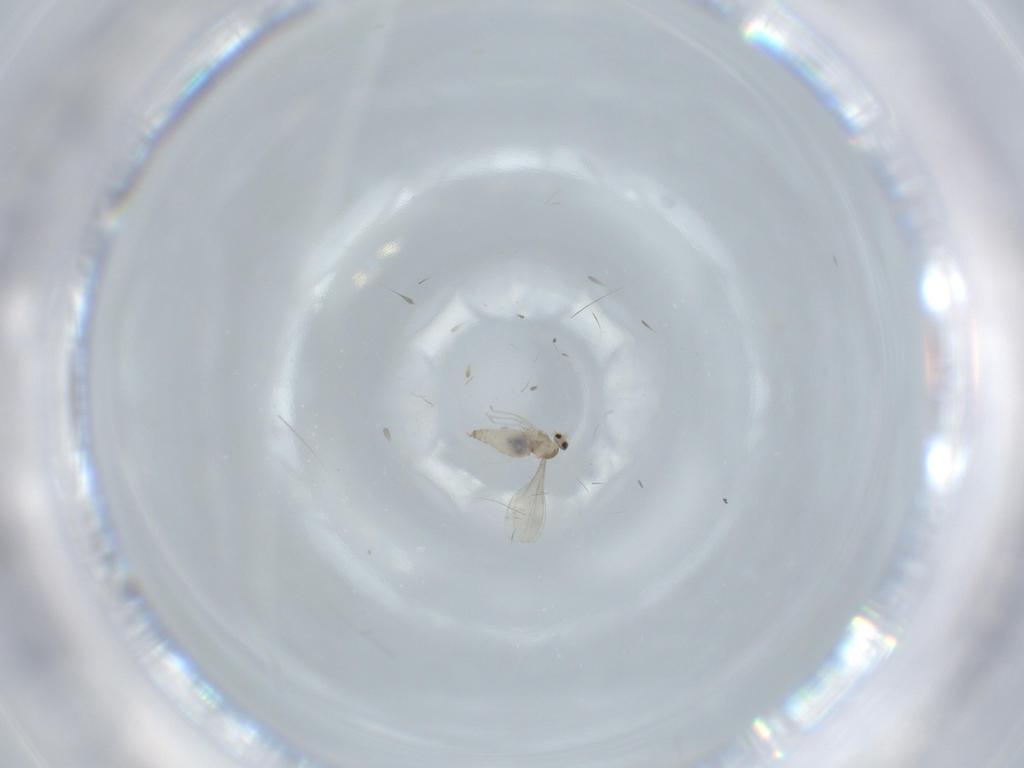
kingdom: Animalia
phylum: Arthropoda
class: Insecta
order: Diptera
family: Cecidomyiidae
